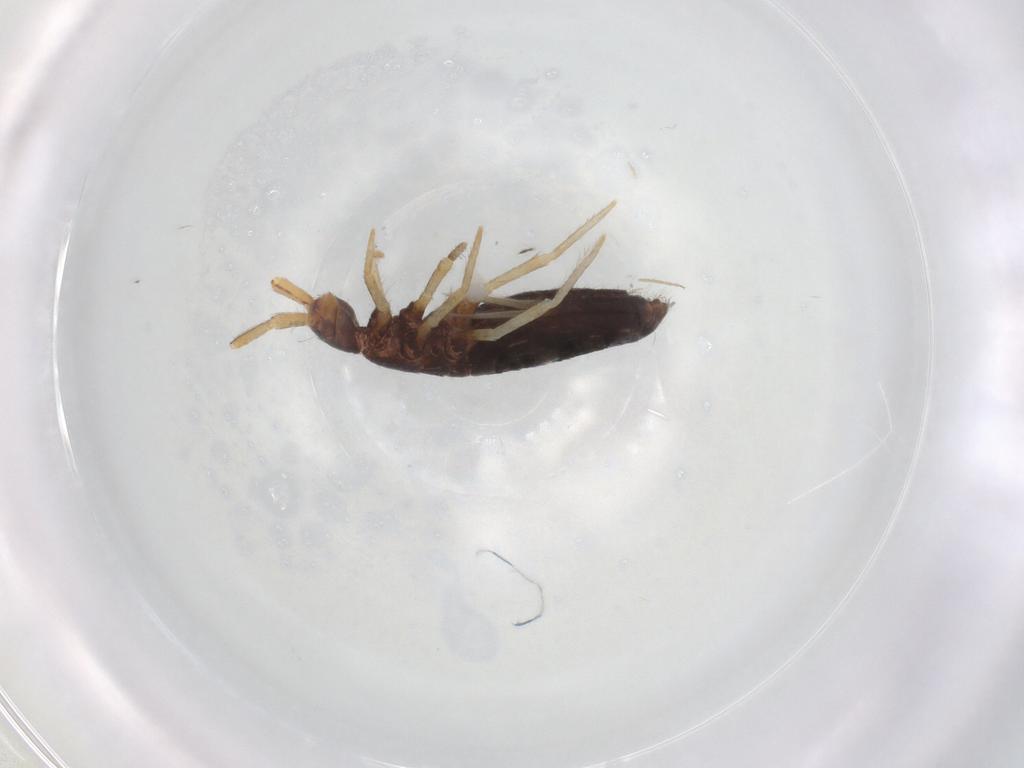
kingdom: Animalia
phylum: Arthropoda
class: Collembola
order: Entomobryomorpha
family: Entomobryidae
